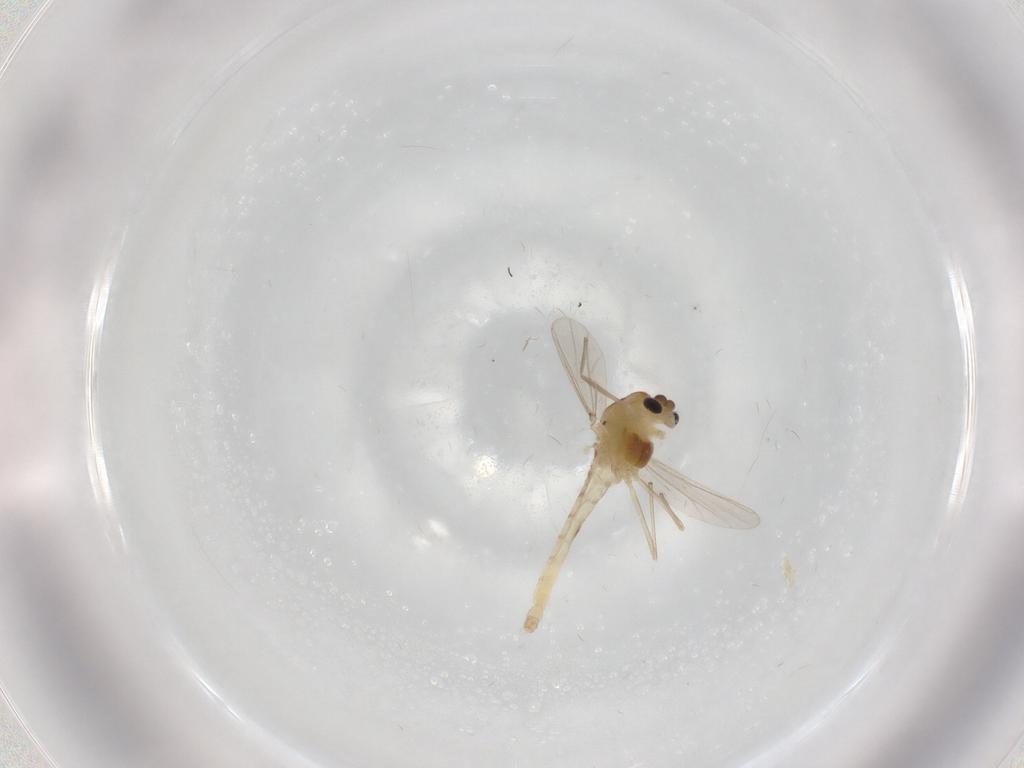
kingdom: Animalia
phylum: Arthropoda
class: Insecta
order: Diptera
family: Chironomidae
